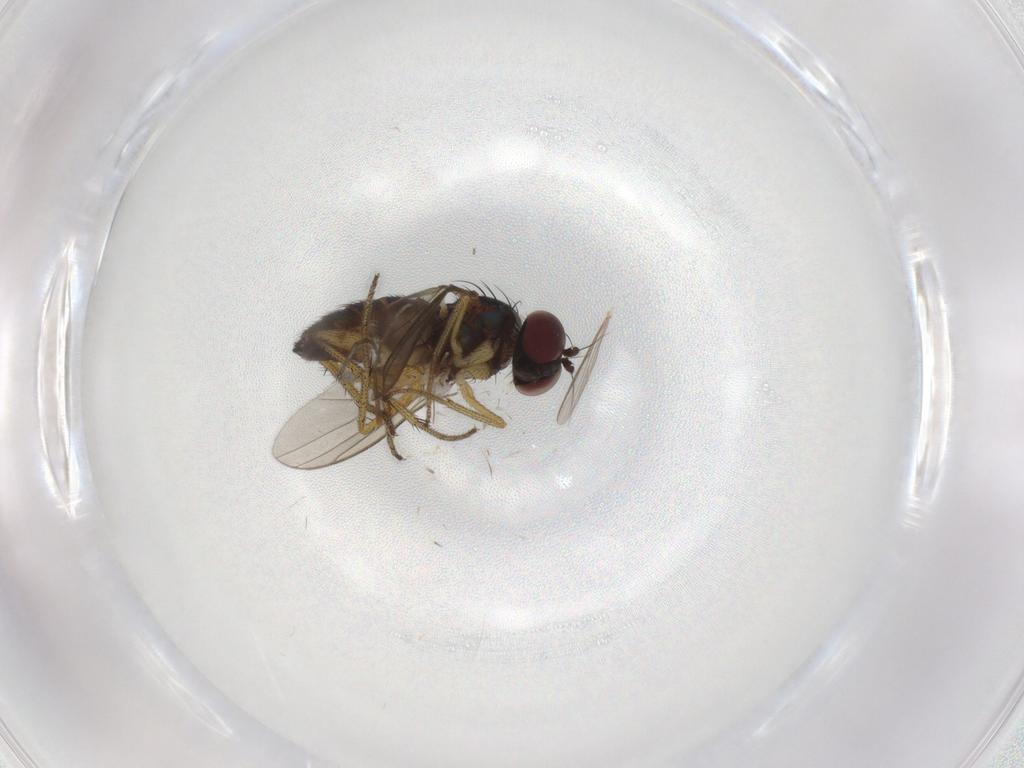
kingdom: Animalia
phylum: Arthropoda
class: Insecta
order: Diptera
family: Dolichopodidae
